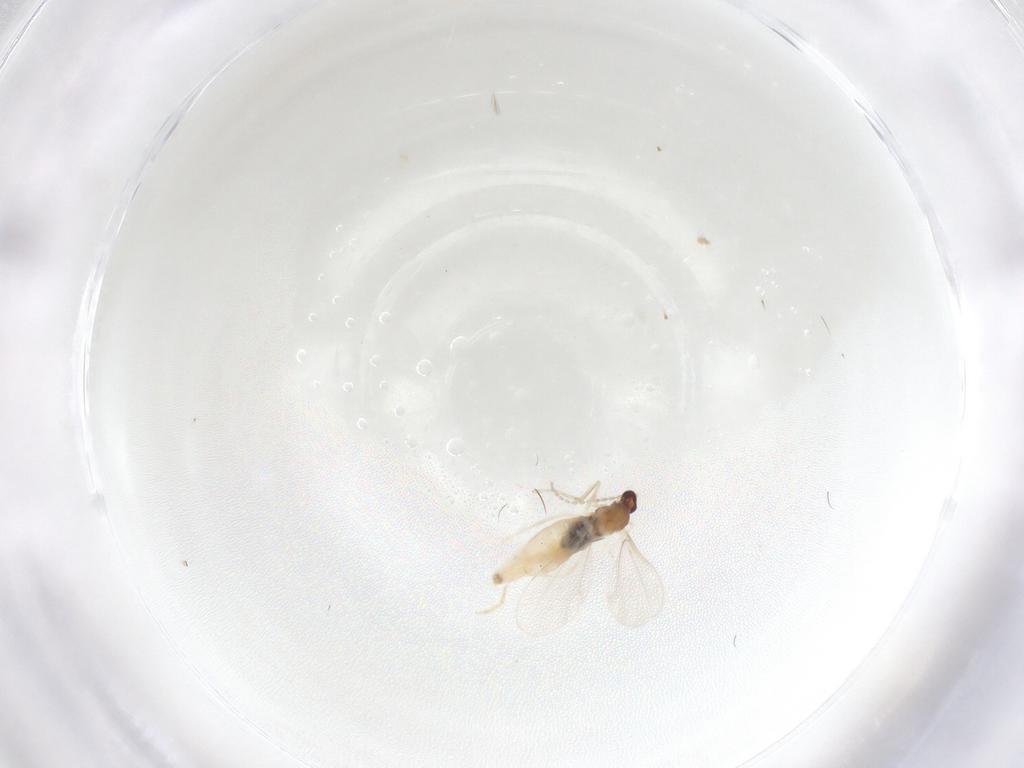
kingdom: Animalia
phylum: Arthropoda
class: Insecta
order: Diptera
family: Cecidomyiidae
